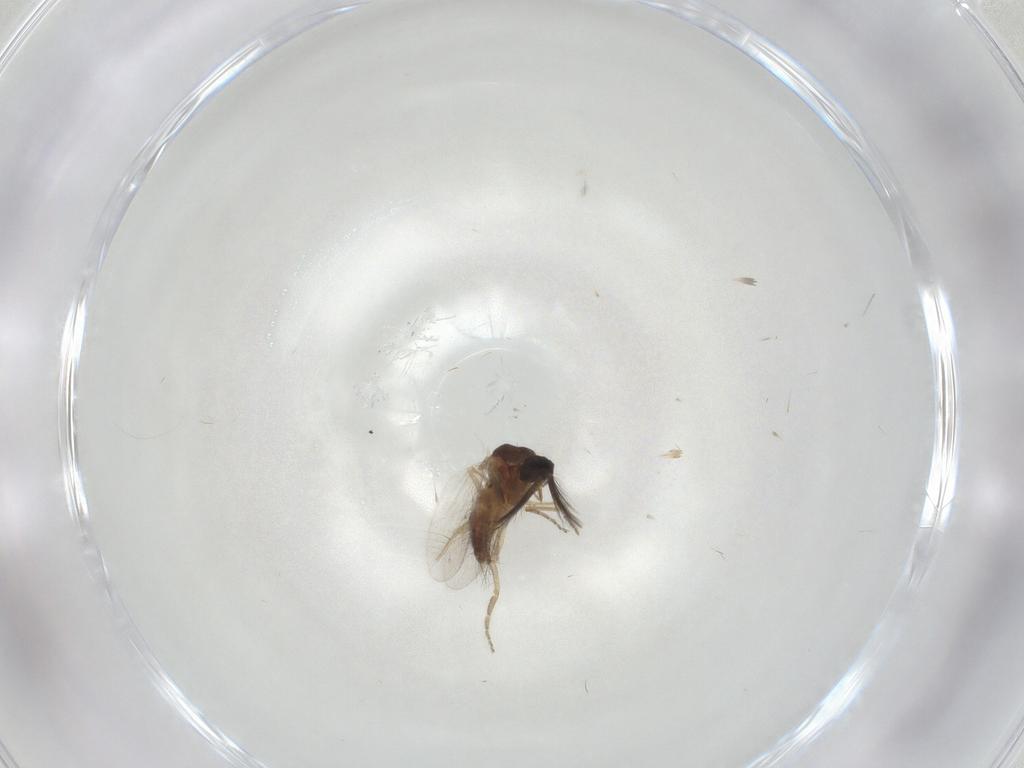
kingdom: Animalia
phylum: Arthropoda
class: Insecta
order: Diptera
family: Ceratopogonidae
